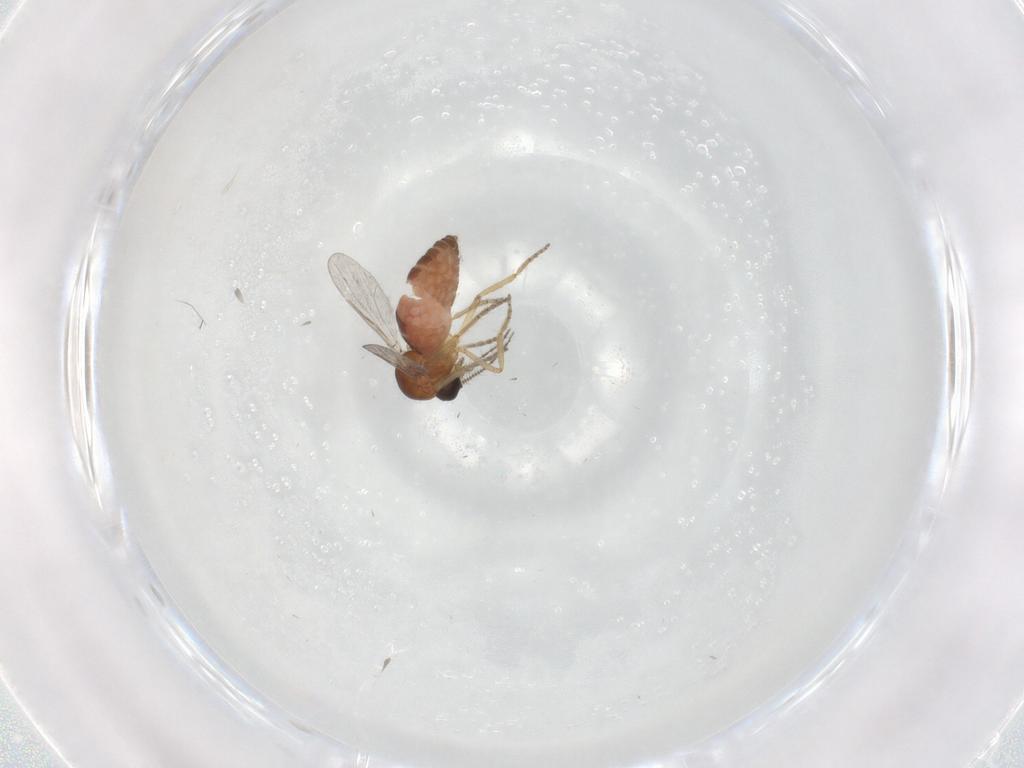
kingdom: Animalia
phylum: Arthropoda
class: Insecta
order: Diptera
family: Ceratopogonidae
